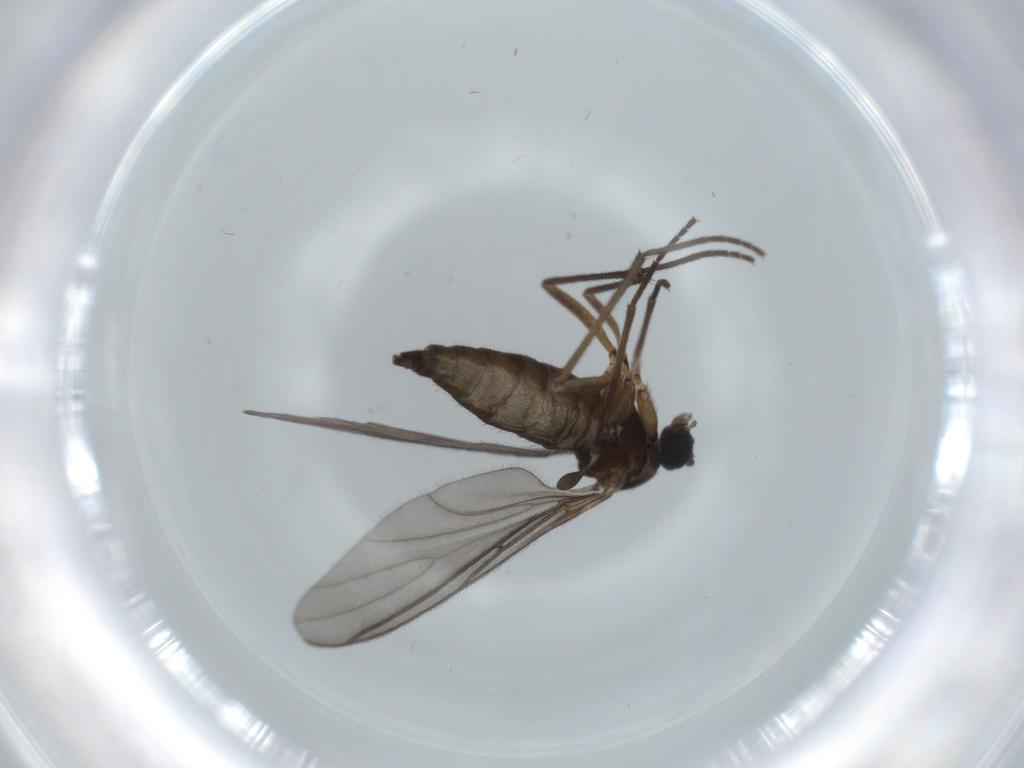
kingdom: Animalia
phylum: Arthropoda
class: Insecta
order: Diptera
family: Sciaridae
